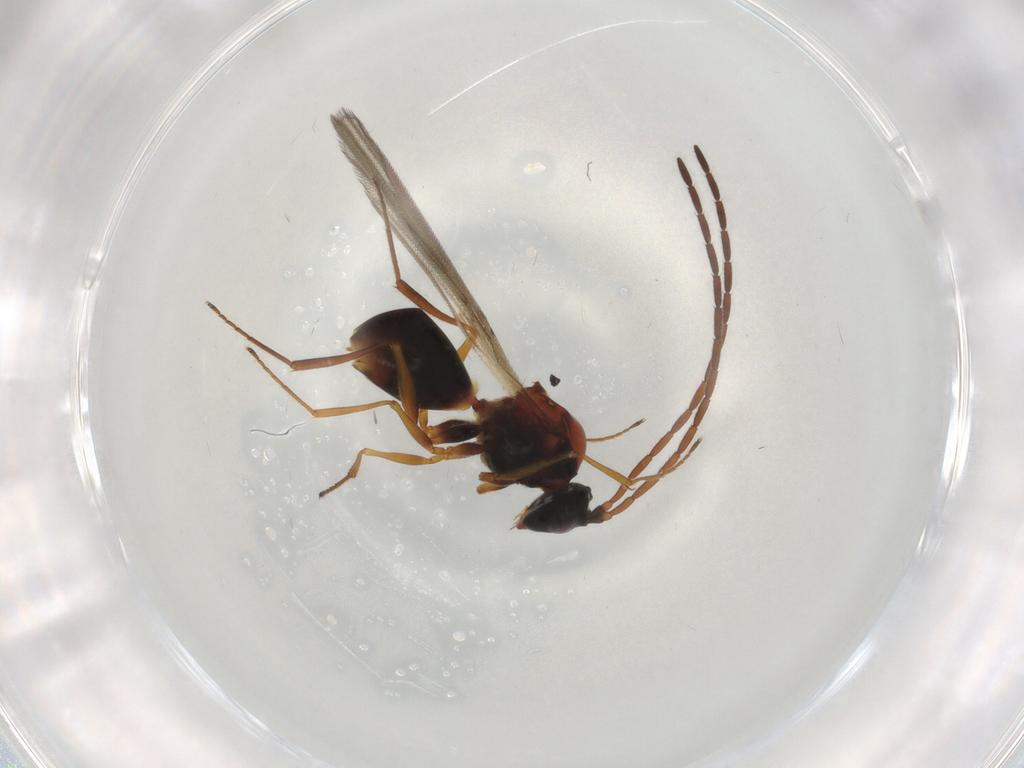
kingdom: Animalia
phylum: Arthropoda
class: Insecta
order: Hymenoptera
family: Figitidae
